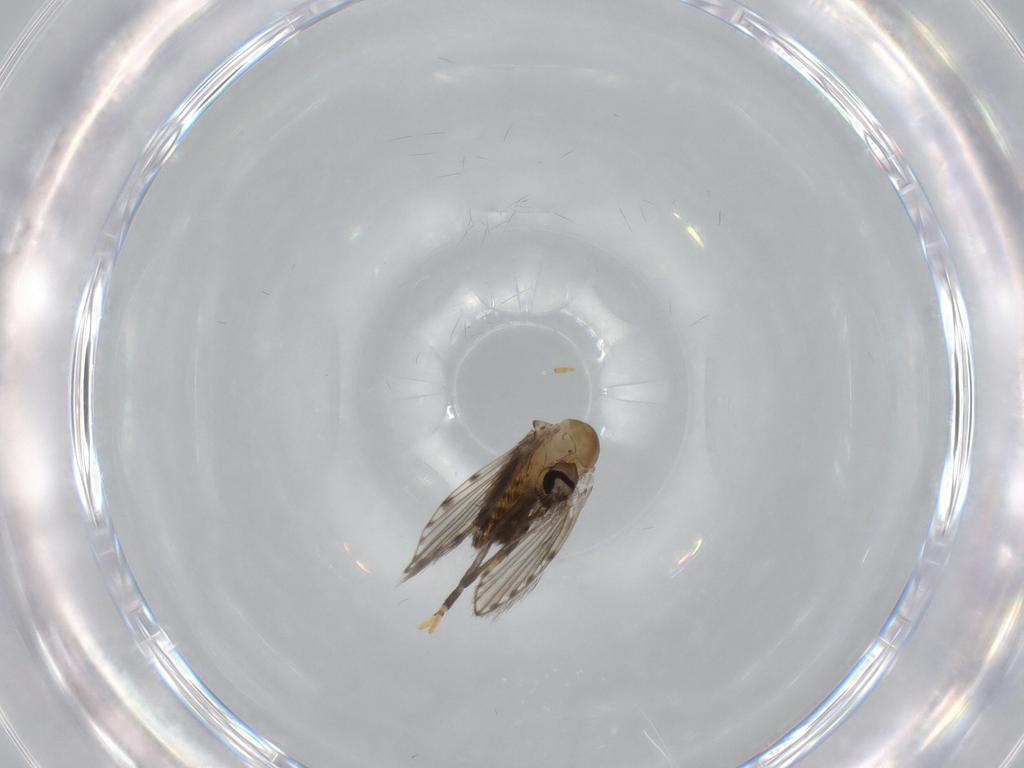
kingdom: Animalia
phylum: Arthropoda
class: Insecta
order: Diptera
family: Psychodidae
